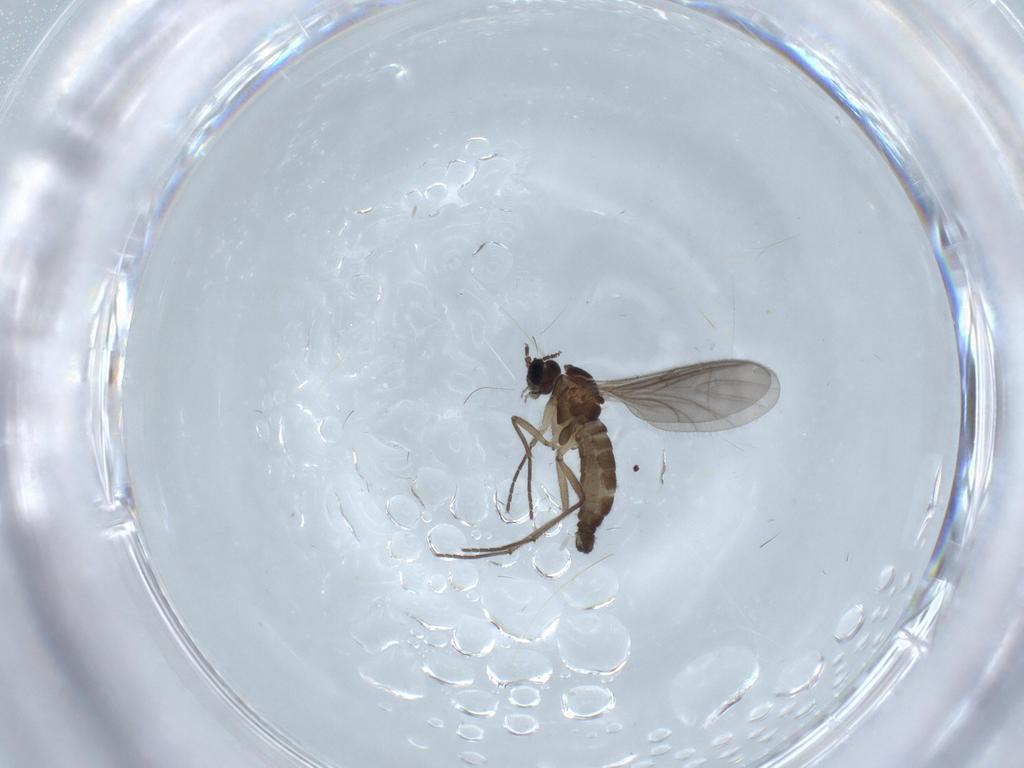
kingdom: Animalia
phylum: Arthropoda
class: Insecta
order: Diptera
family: Sciaridae
